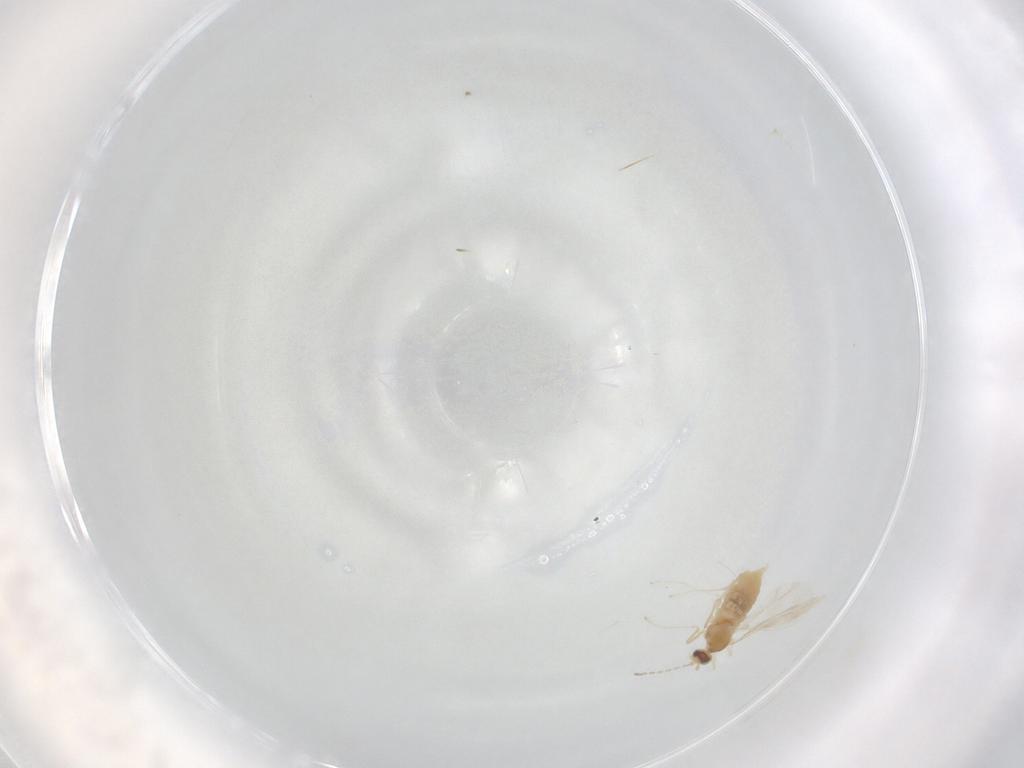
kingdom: Animalia
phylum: Arthropoda
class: Insecta
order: Diptera
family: Cecidomyiidae
